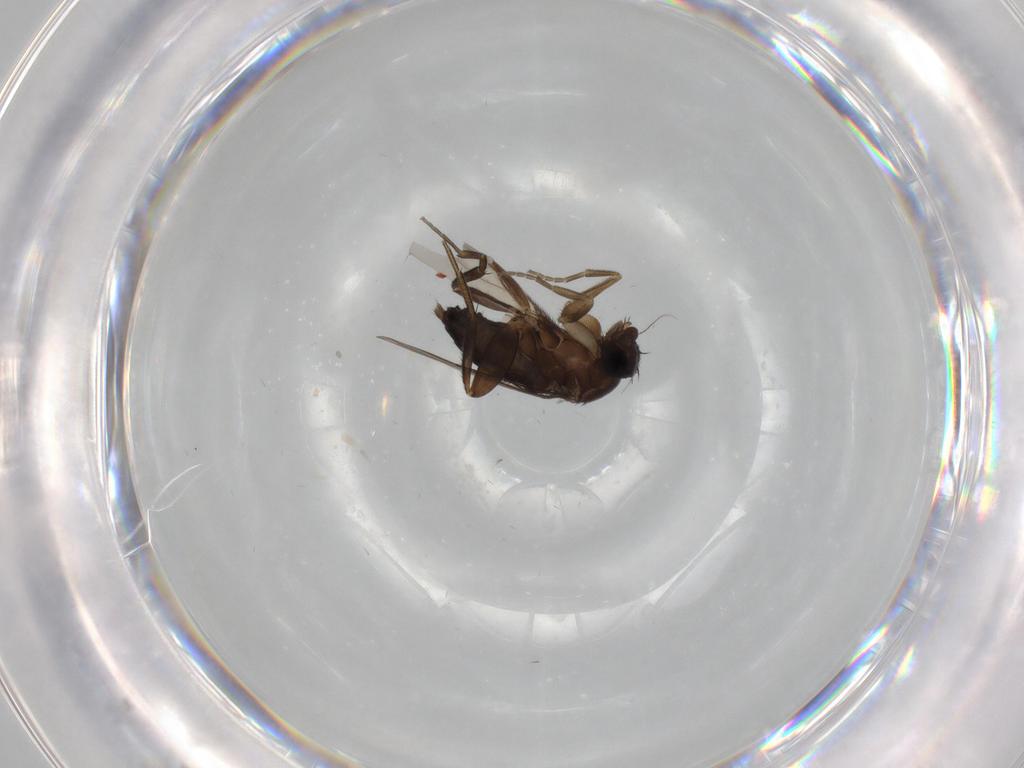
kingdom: Animalia
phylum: Arthropoda
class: Insecta
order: Diptera
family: Phoridae
